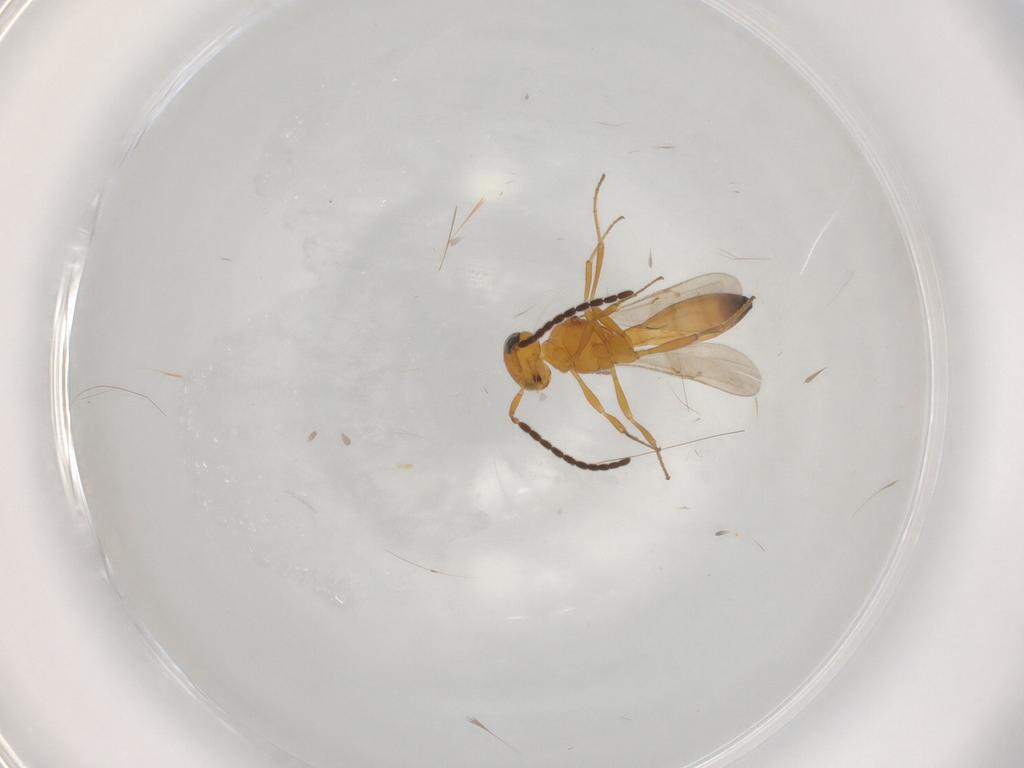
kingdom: Animalia
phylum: Arthropoda
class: Insecta
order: Hymenoptera
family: Scelionidae
